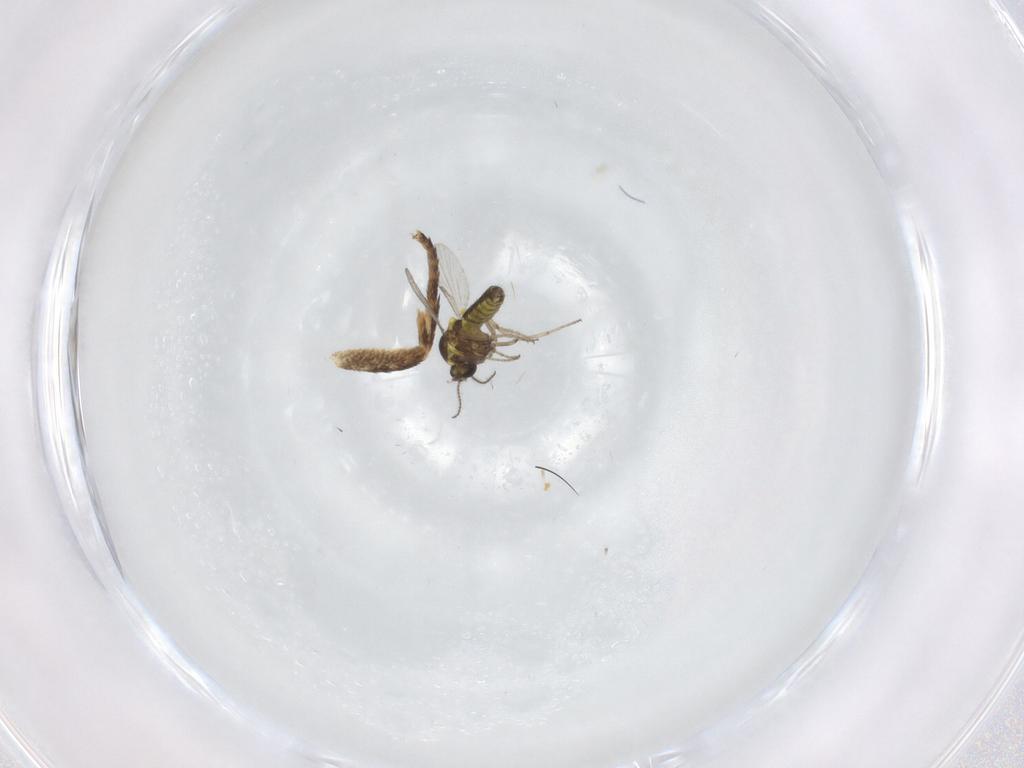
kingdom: Animalia
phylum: Arthropoda
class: Insecta
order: Diptera
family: Ceratopogonidae
